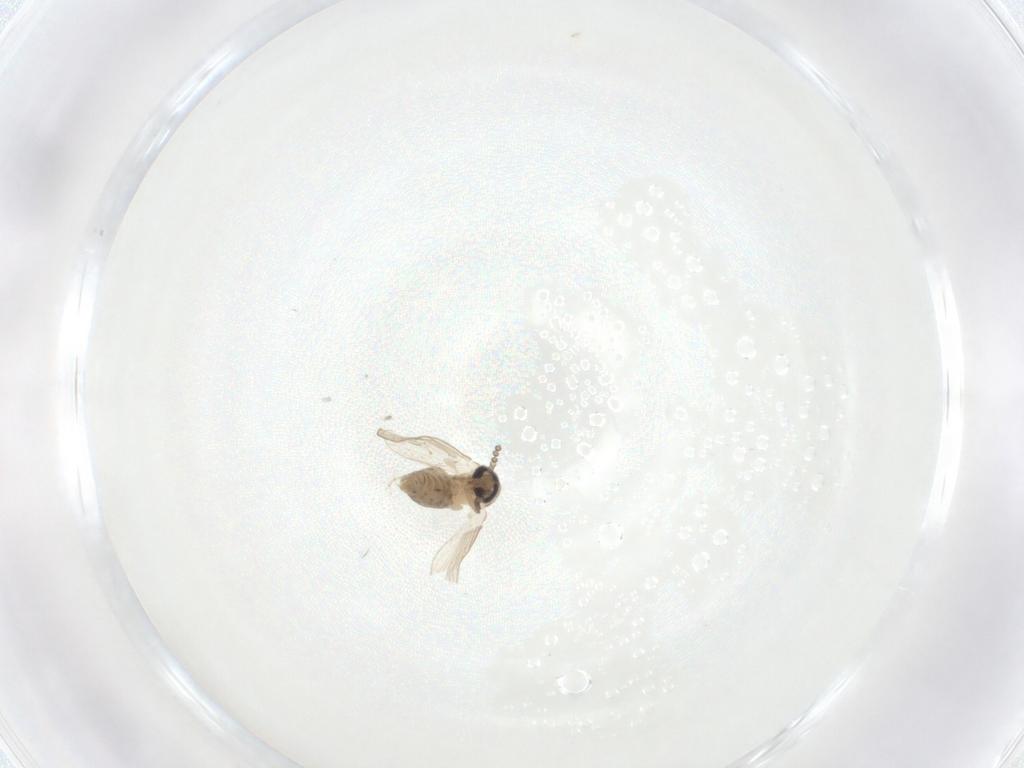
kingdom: Animalia
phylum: Arthropoda
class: Insecta
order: Diptera
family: Psychodidae
